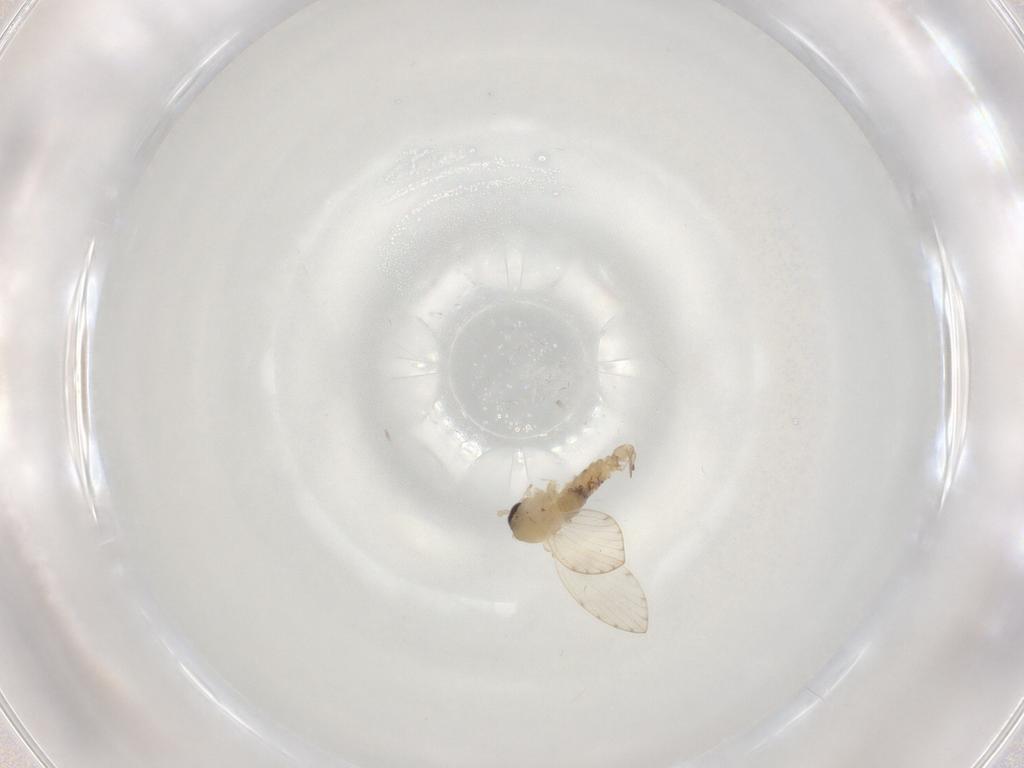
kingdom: Animalia
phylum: Arthropoda
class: Insecta
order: Diptera
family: Psychodidae
